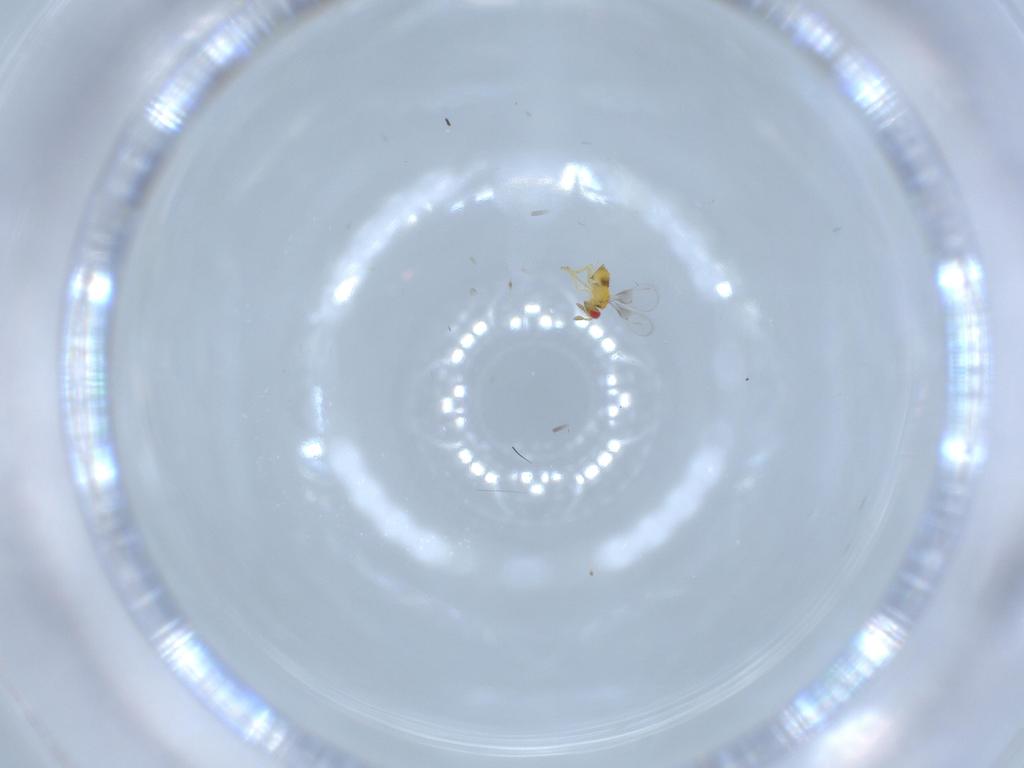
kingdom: Animalia
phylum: Arthropoda
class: Insecta
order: Hymenoptera
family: Trichogrammatidae
